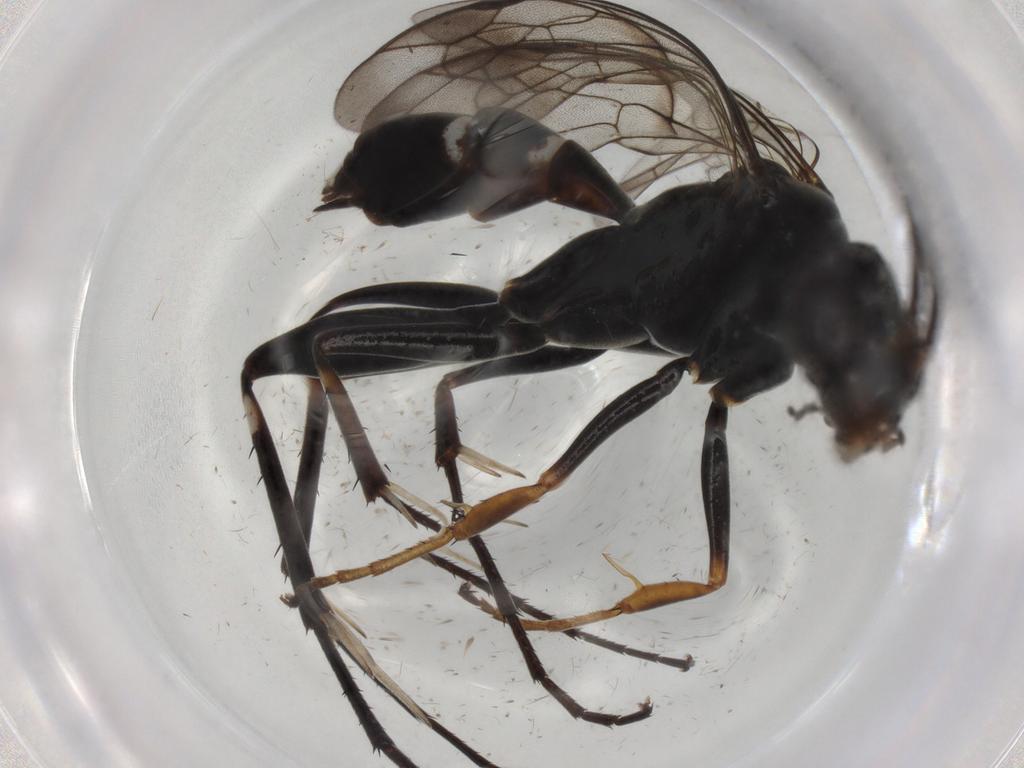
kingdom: Animalia
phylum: Arthropoda
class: Insecta
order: Hymenoptera
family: Pompilidae
